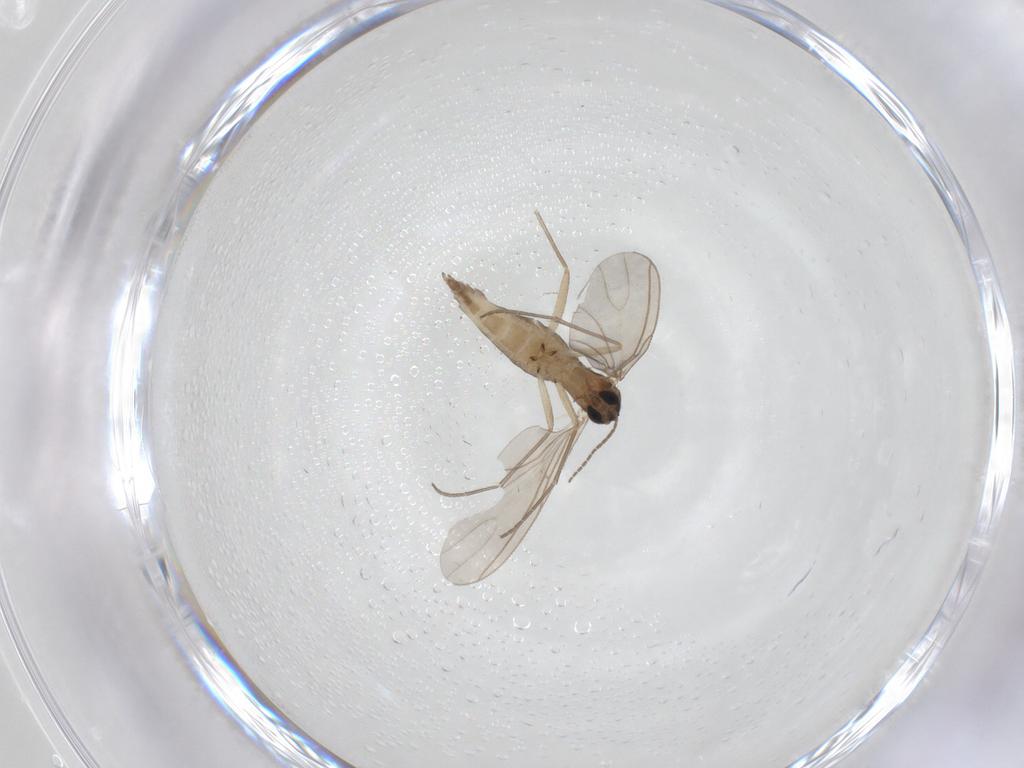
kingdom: Animalia
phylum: Arthropoda
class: Insecta
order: Diptera
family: Sciaridae
